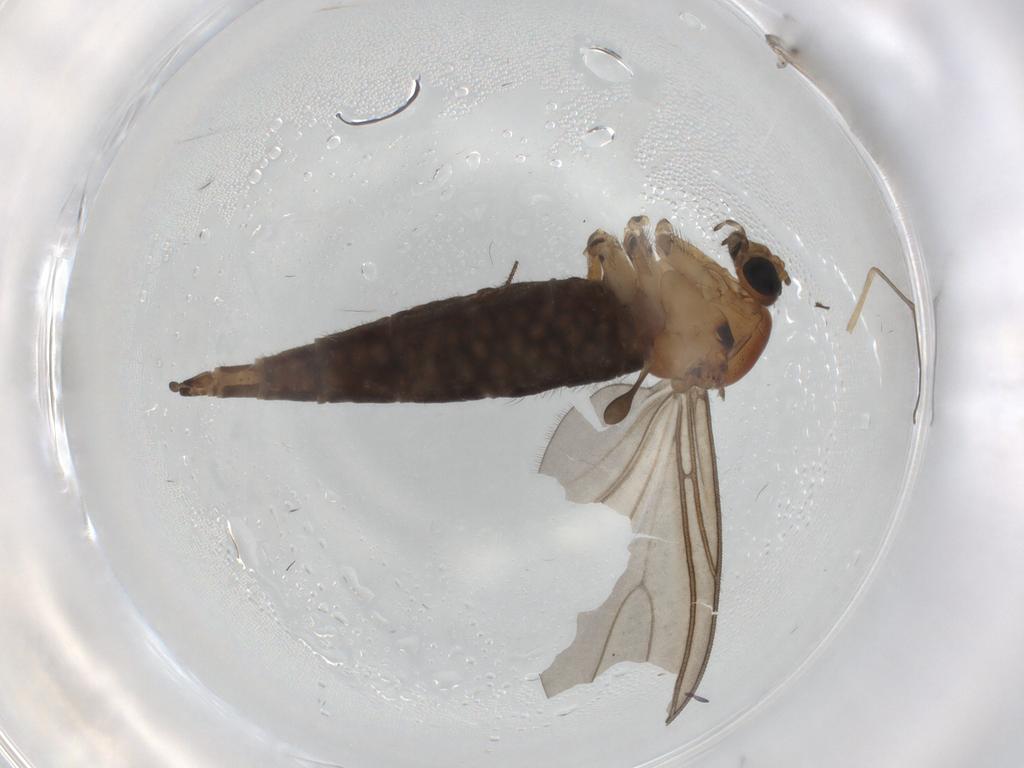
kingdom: Animalia
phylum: Arthropoda
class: Insecta
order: Diptera
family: Sciaridae
